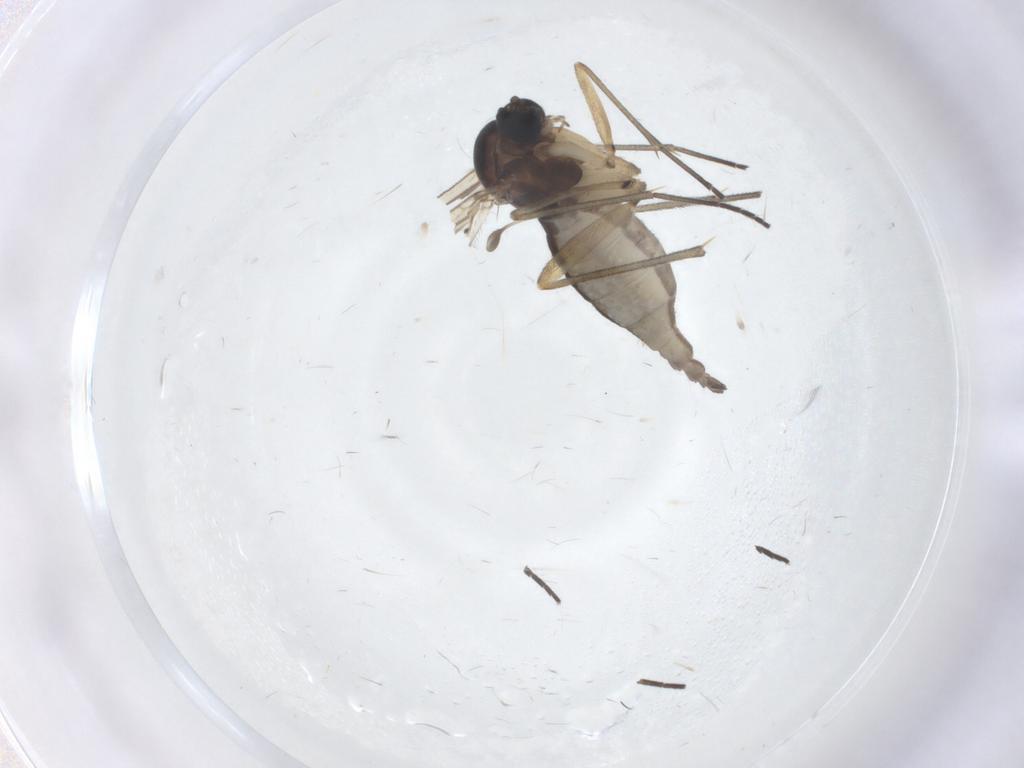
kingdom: Animalia
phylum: Arthropoda
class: Insecta
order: Diptera
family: Sciaridae
